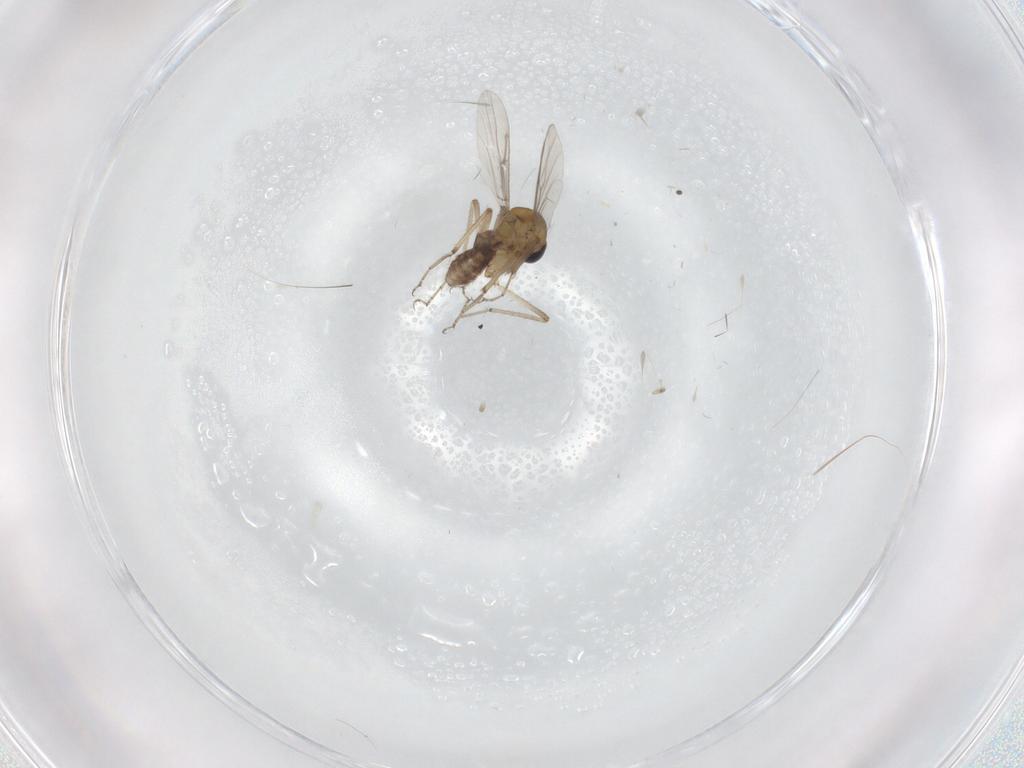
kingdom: Animalia
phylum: Arthropoda
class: Insecta
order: Diptera
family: Ceratopogonidae
